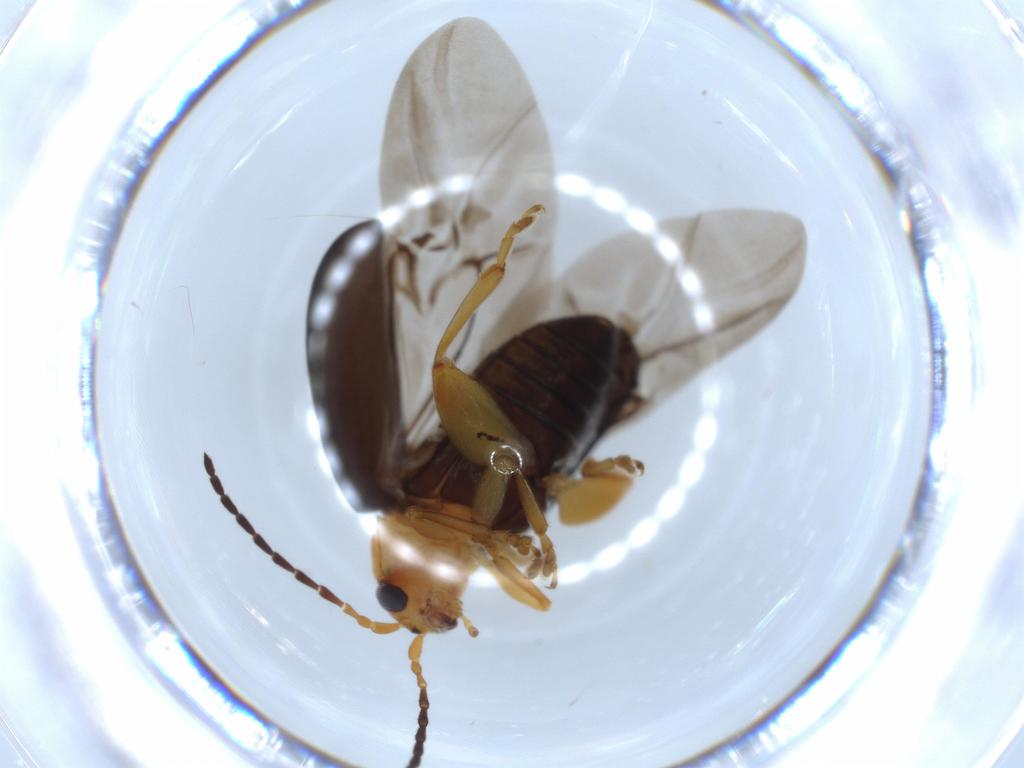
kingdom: Animalia
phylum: Arthropoda
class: Insecta
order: Coleoptera
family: Chrysomelidae
